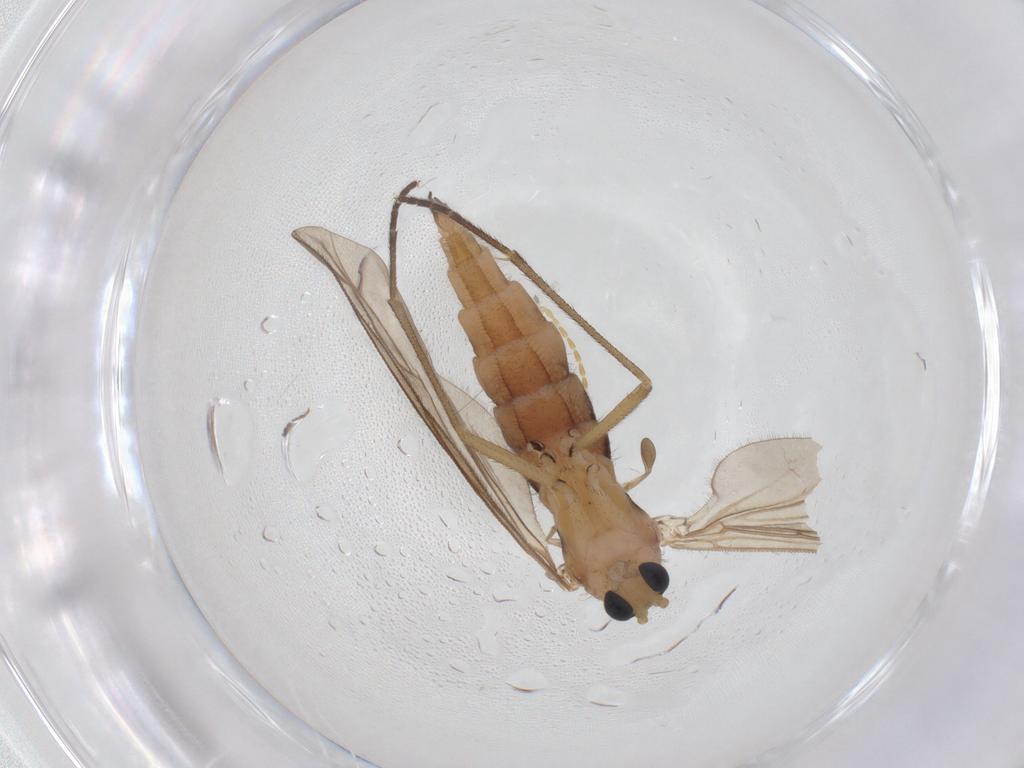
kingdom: Animalia
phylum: Arthropoda
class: Insecta
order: Diptera
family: Sciaridae
